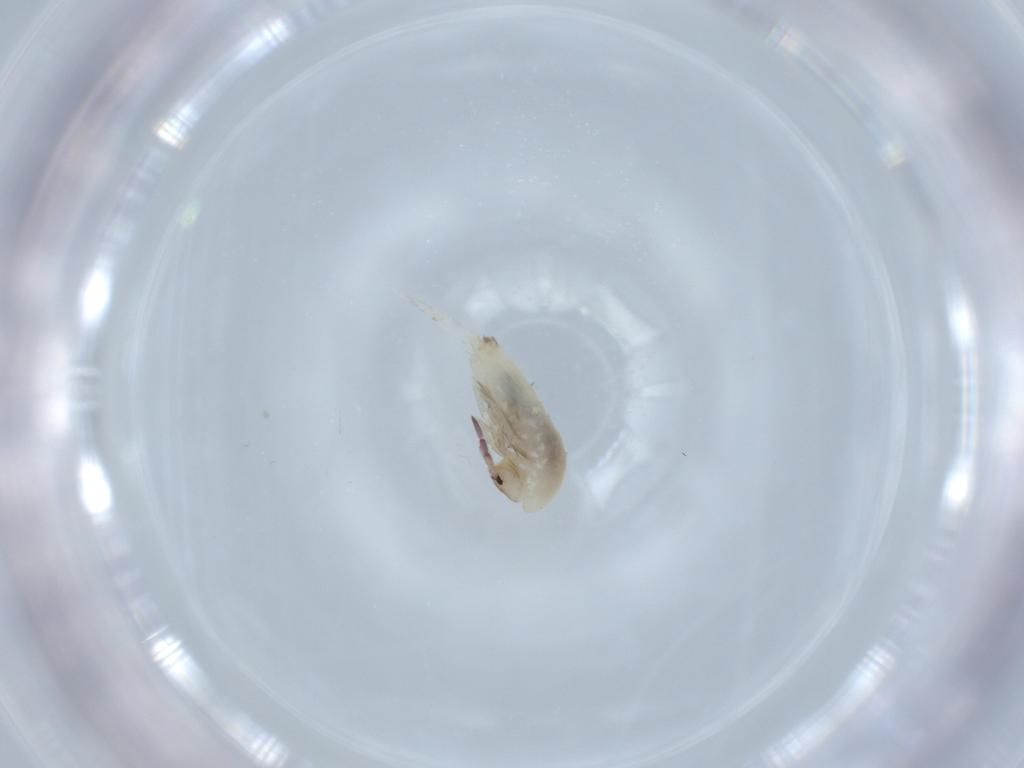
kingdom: Animalia
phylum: Arthropoda
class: Collembola
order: Entomobryomorpha
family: Entomobryidae
